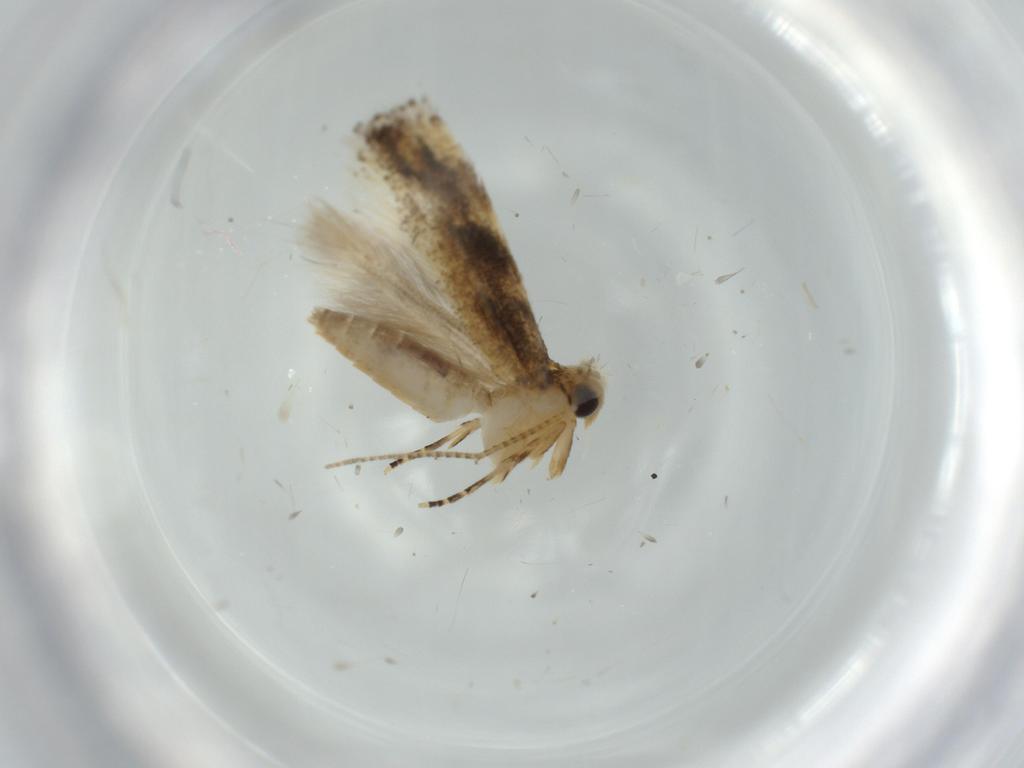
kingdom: Animalia
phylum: Arthropoda
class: Insecta
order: Lepidoptera
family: Bucculatricidae
